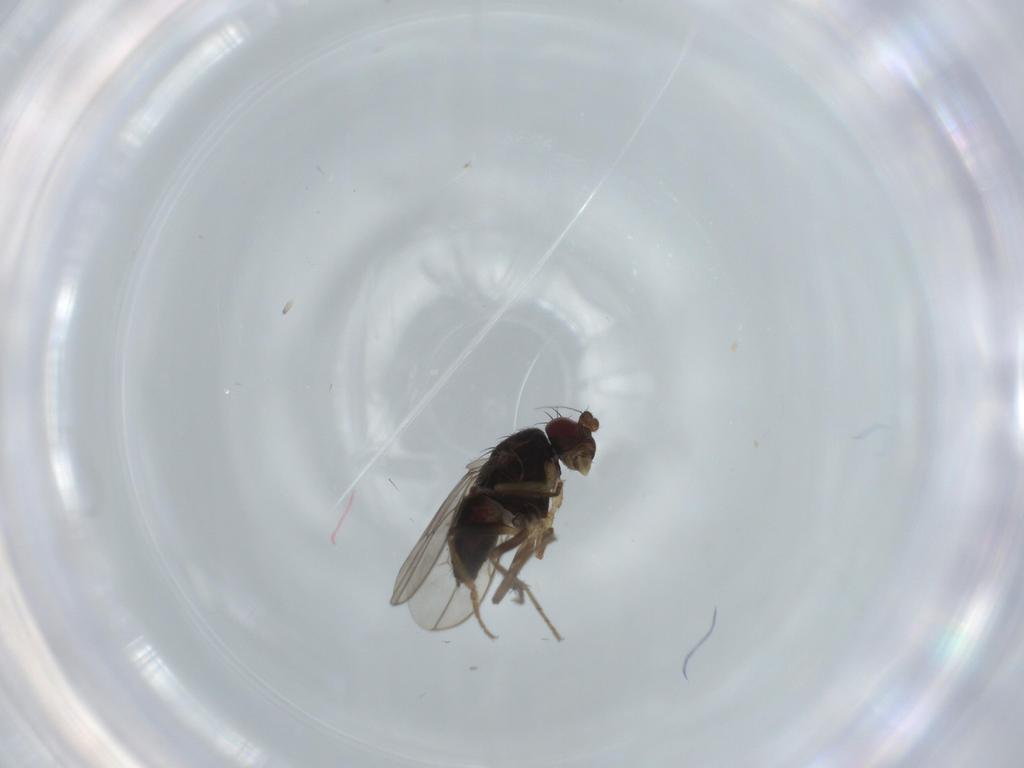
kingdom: Animalia
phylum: Arthropoda
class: Insecta
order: Diptera
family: Sphaeroceridae
